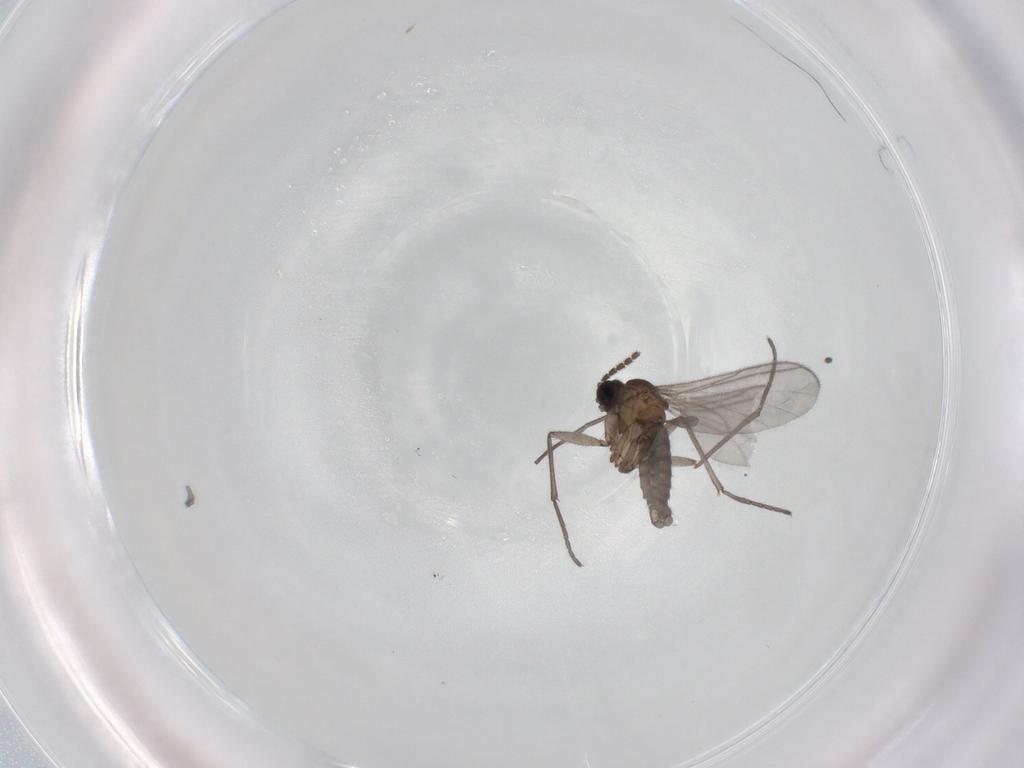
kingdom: Animalia
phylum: Arthropoda
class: Insecta
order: Diptera
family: Sciaridae
